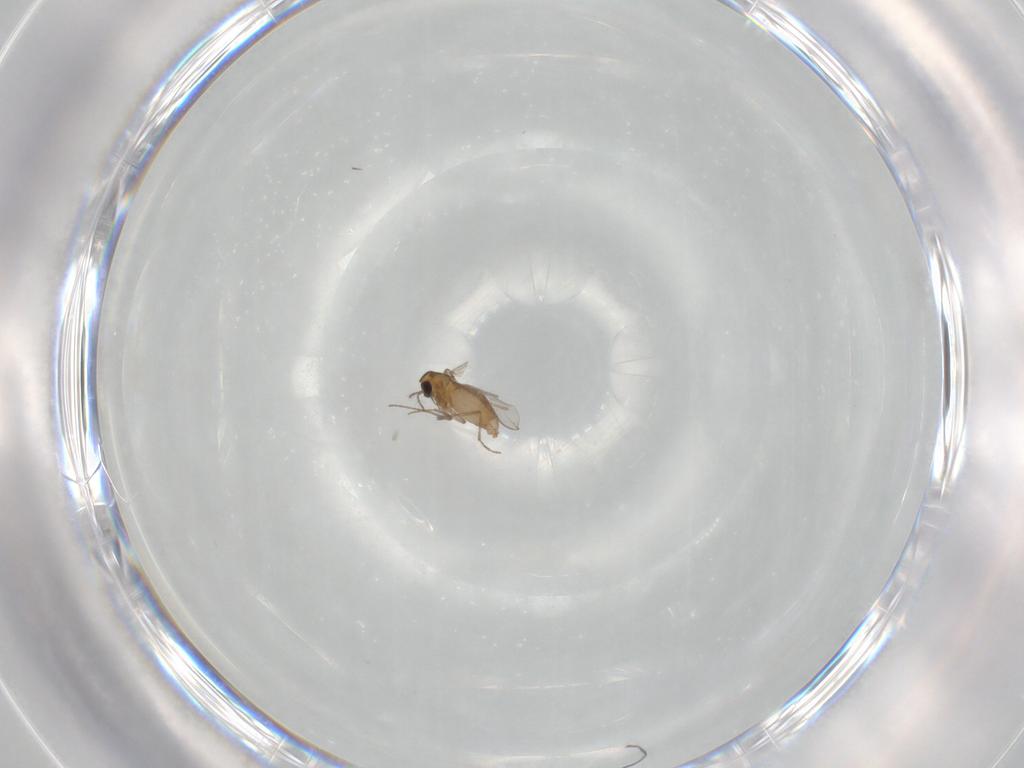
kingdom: Animalia
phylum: Arthropoda
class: Insecta
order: Diptera
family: Chironomidae
